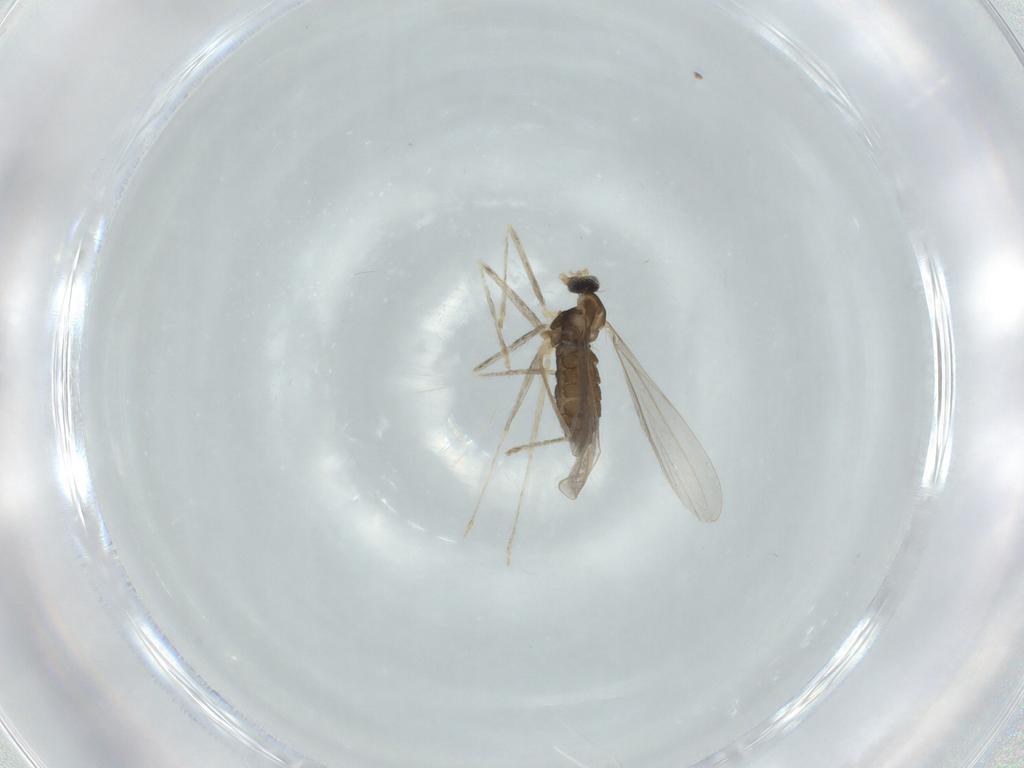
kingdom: Animalia
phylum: Arthropoda
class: Insecta
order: Diptera
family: Cecidomyiidae
